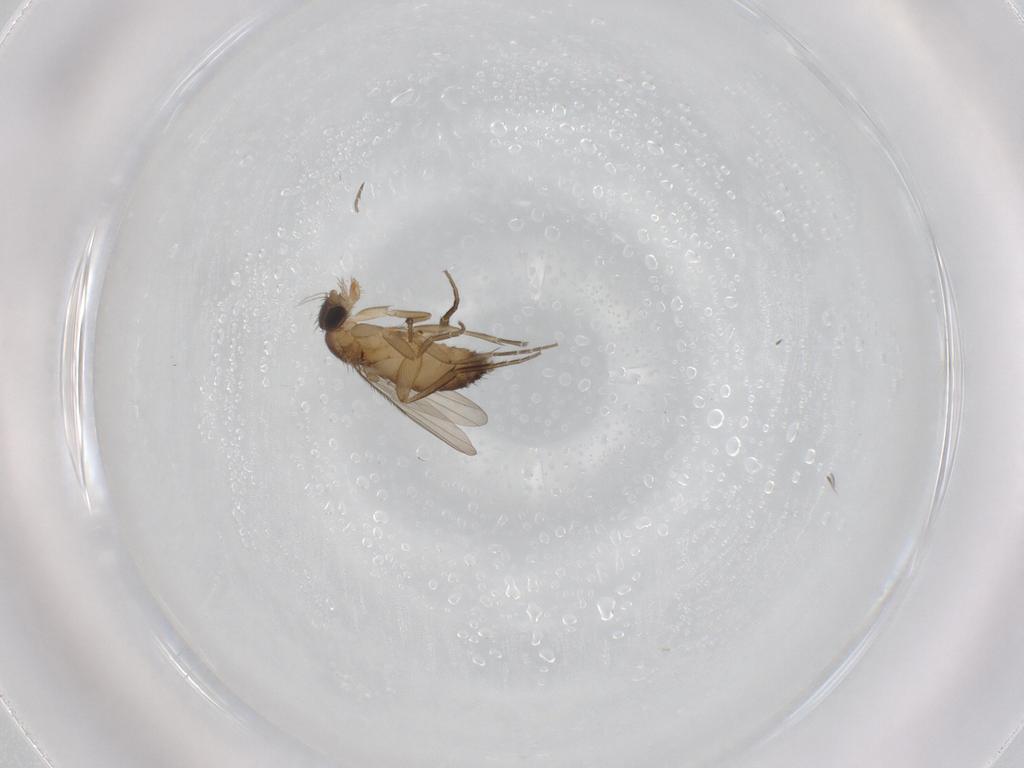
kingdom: Animalia
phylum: Arthropoda
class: Insecta
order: Diptera
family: Phoridae
